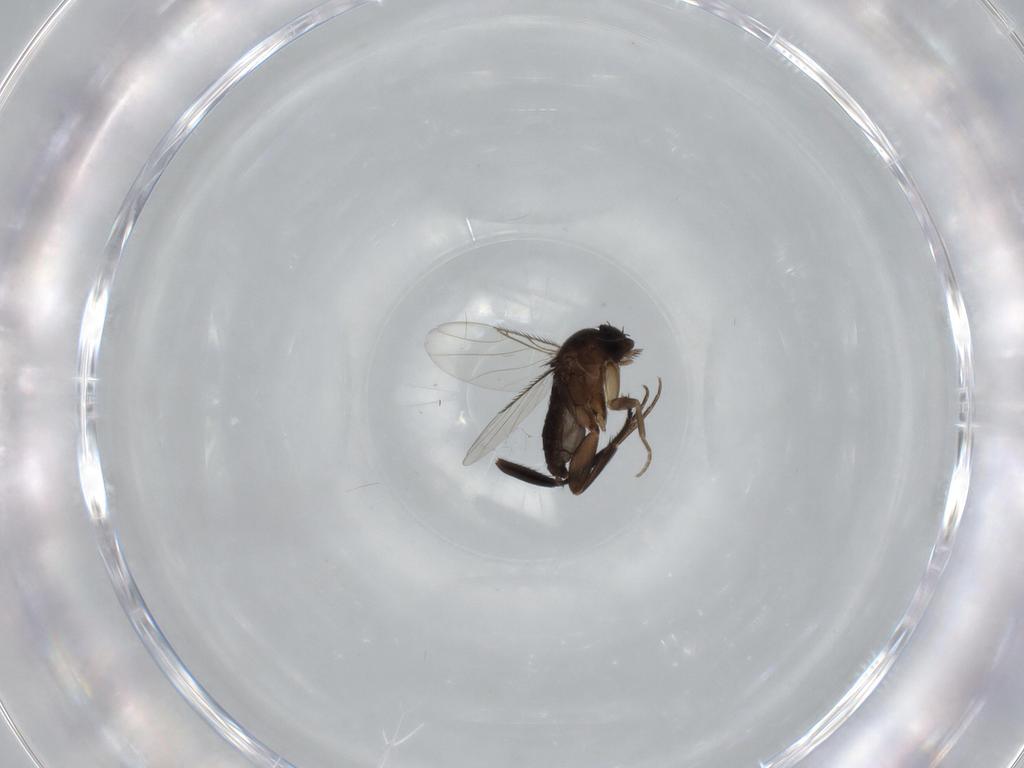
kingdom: Animalia
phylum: Arthropoda
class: Insecta
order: Diptera
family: Phoridae
